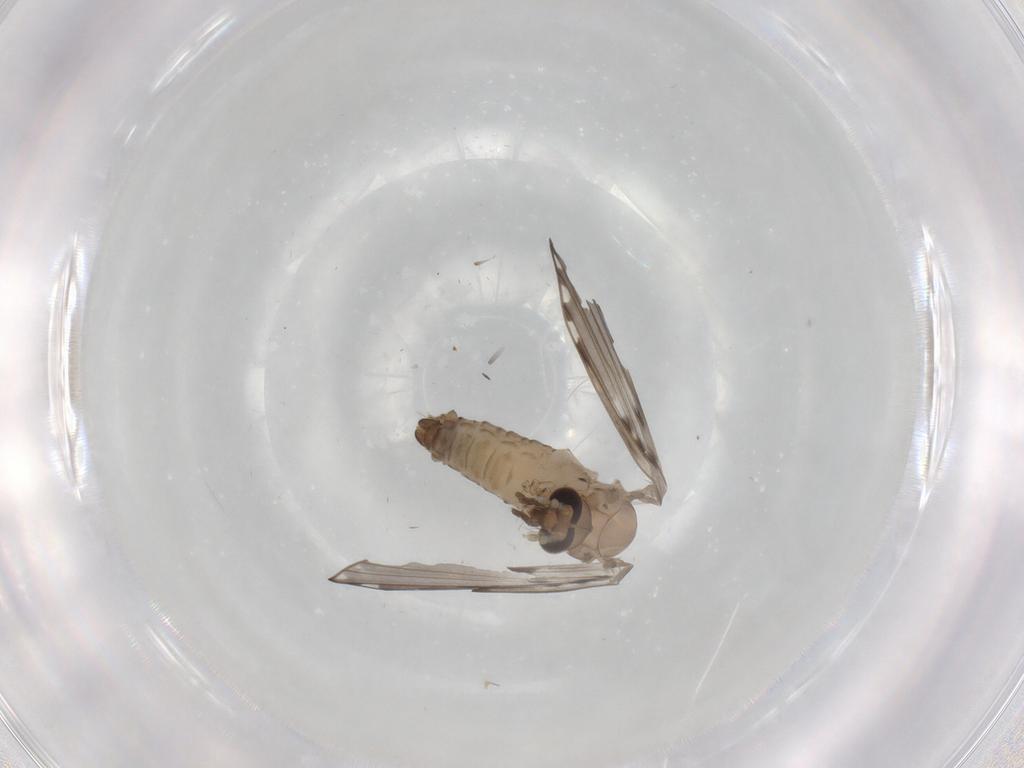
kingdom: Animalia
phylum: Arthropoda
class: Insecta
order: Diptera
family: Psychodidae
